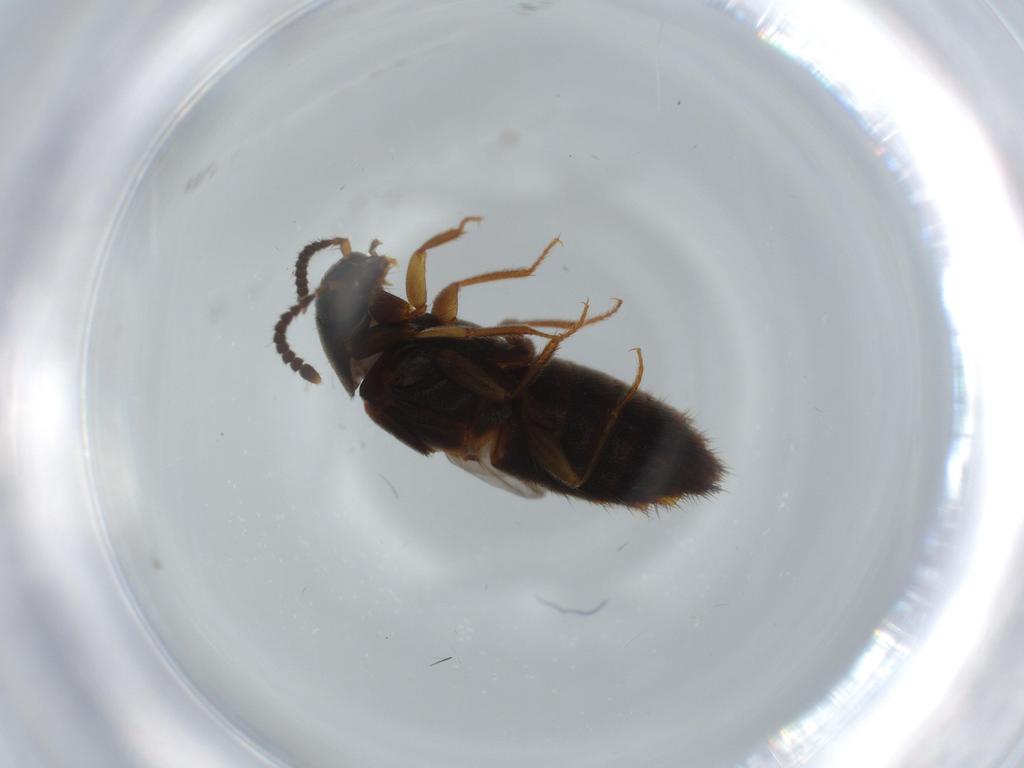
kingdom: Animalia
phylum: Arthropoda
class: Insecta
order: Coleoptera
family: Staphylinidae
